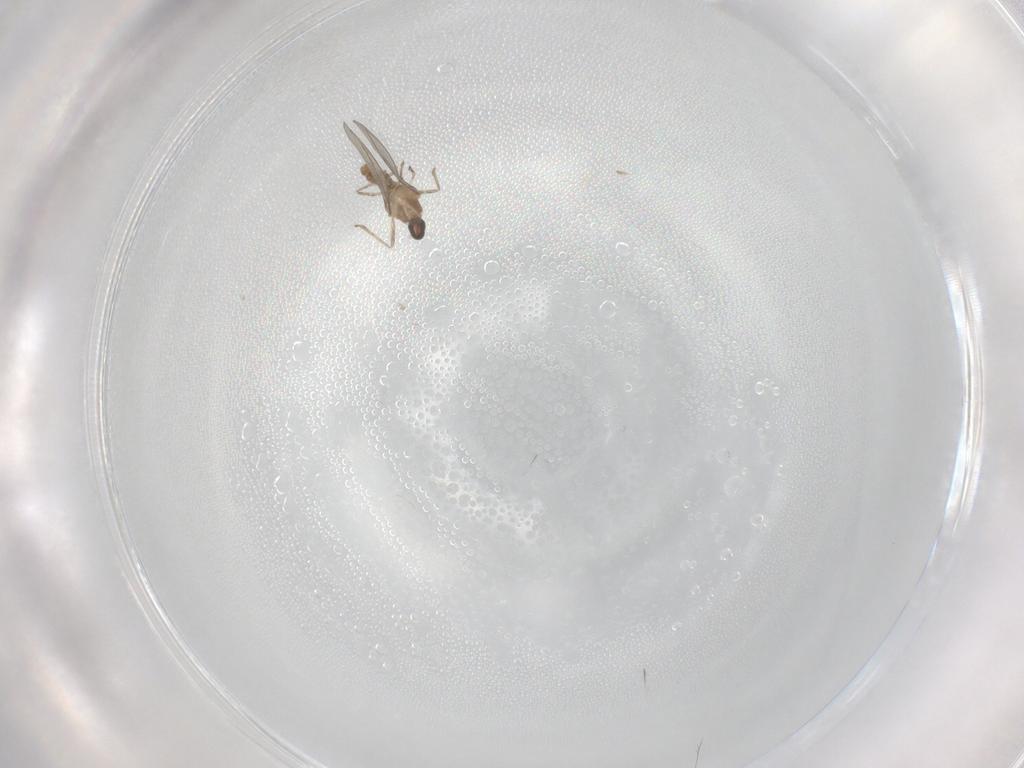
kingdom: Animalia
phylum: Arthropoda
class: Insecta
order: Diptera
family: Cecidomyiidae
